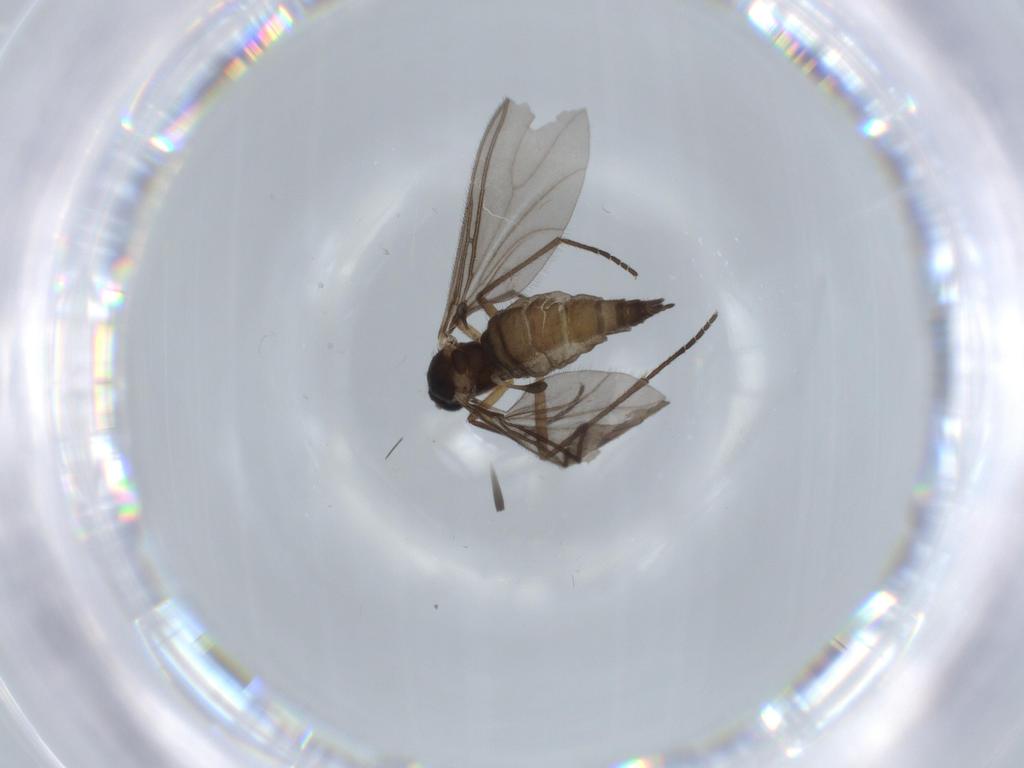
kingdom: Animalia
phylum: Arthropoda
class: Insecta
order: Diptera
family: Sciaridae
